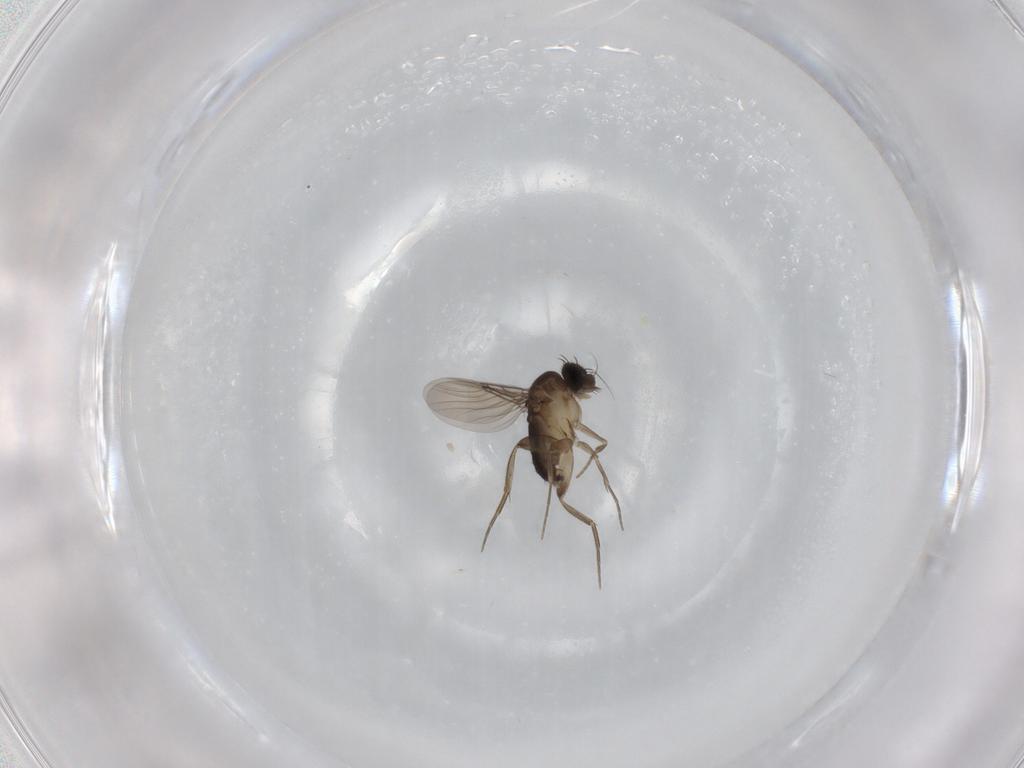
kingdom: Animalia
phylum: Arthropoda
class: Insecta
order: Diptera
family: Phoridae
